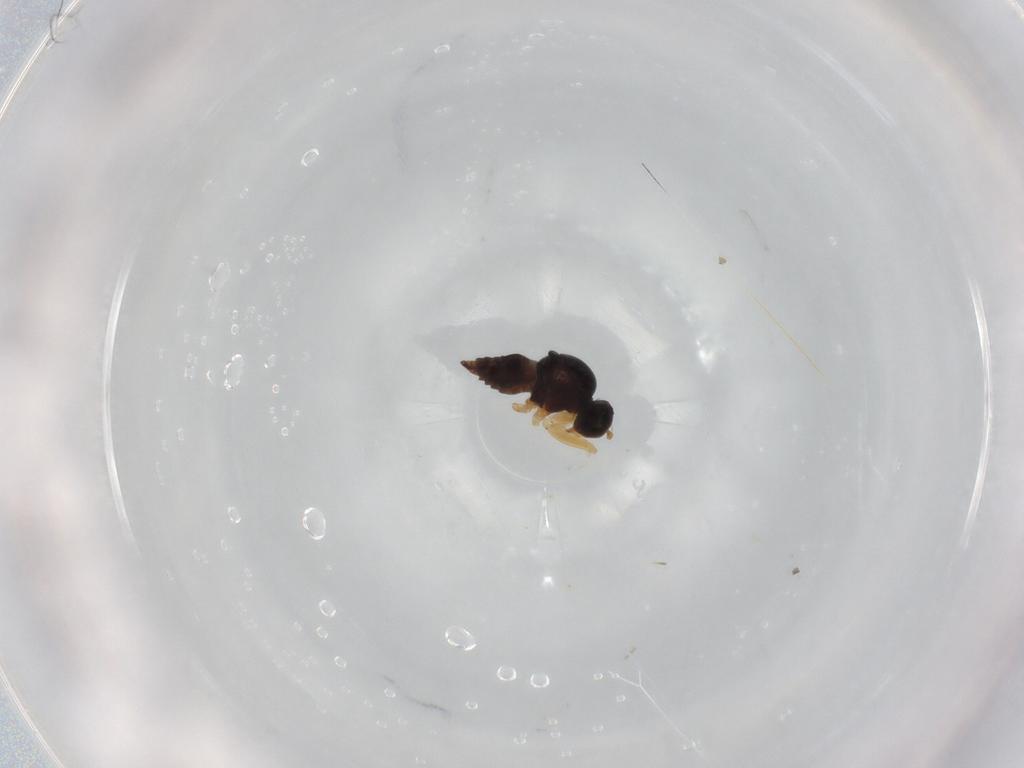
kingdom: Animalia
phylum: Arthropoda
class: Insecta
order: Diptera
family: Hybotidae
